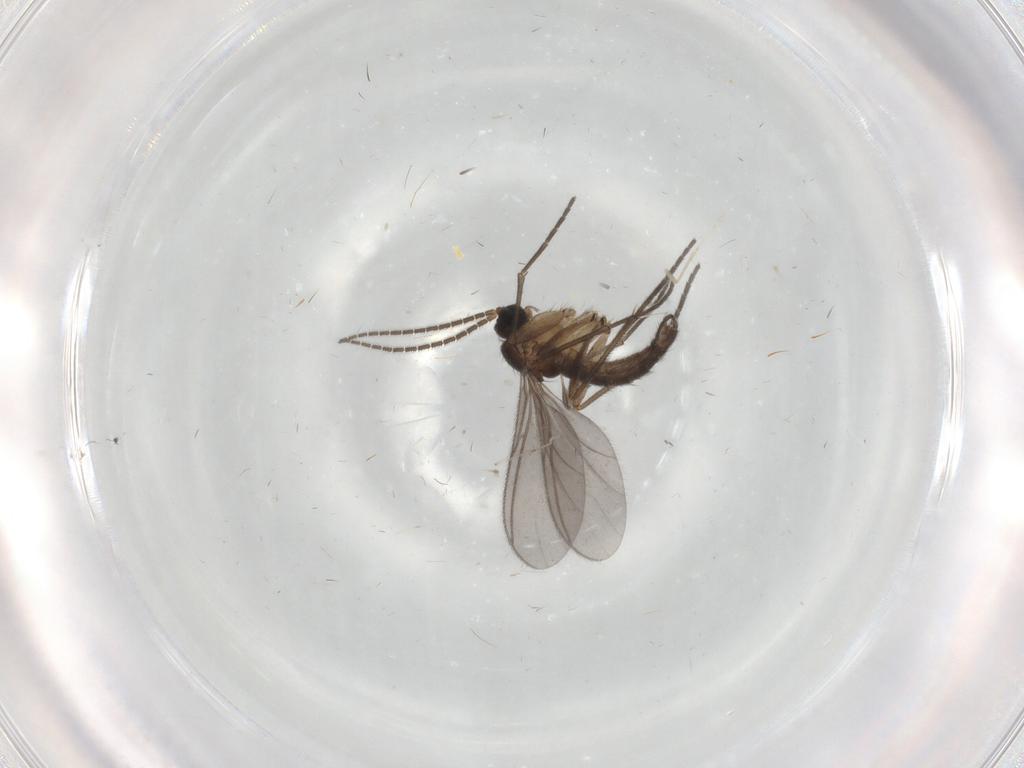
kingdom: Animalia
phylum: Arthropoda
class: Insecta
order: Diptera
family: Sciaridae
